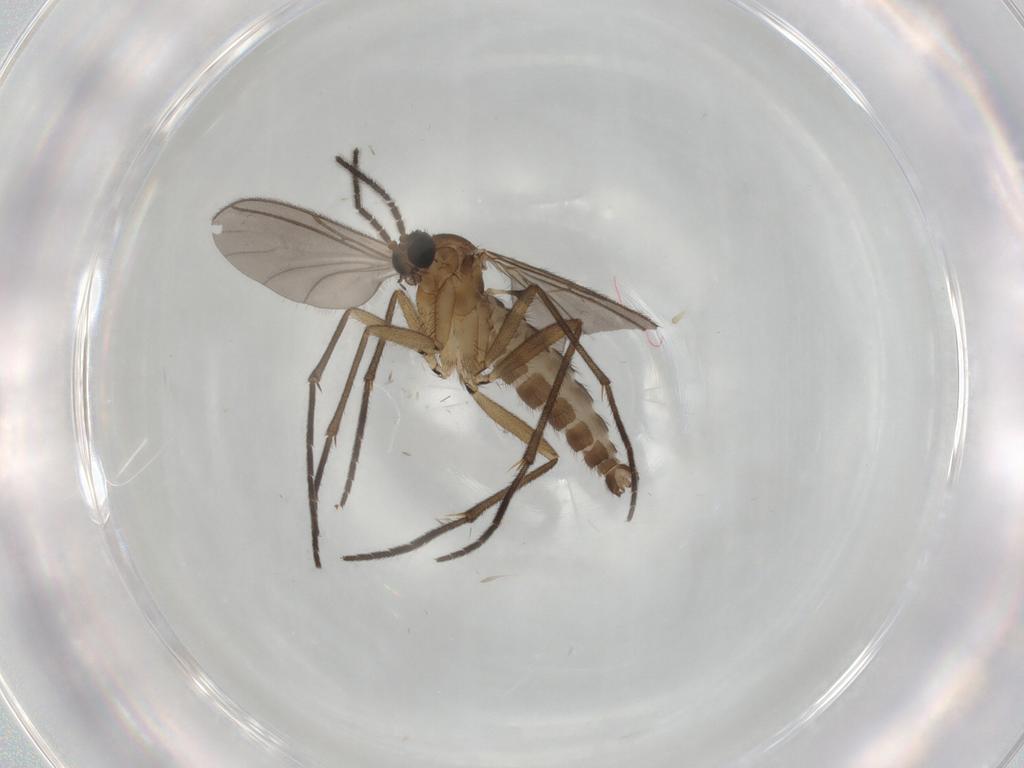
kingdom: Animalia
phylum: Arthropoda
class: Insecta
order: Diptera
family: Sciaridae
